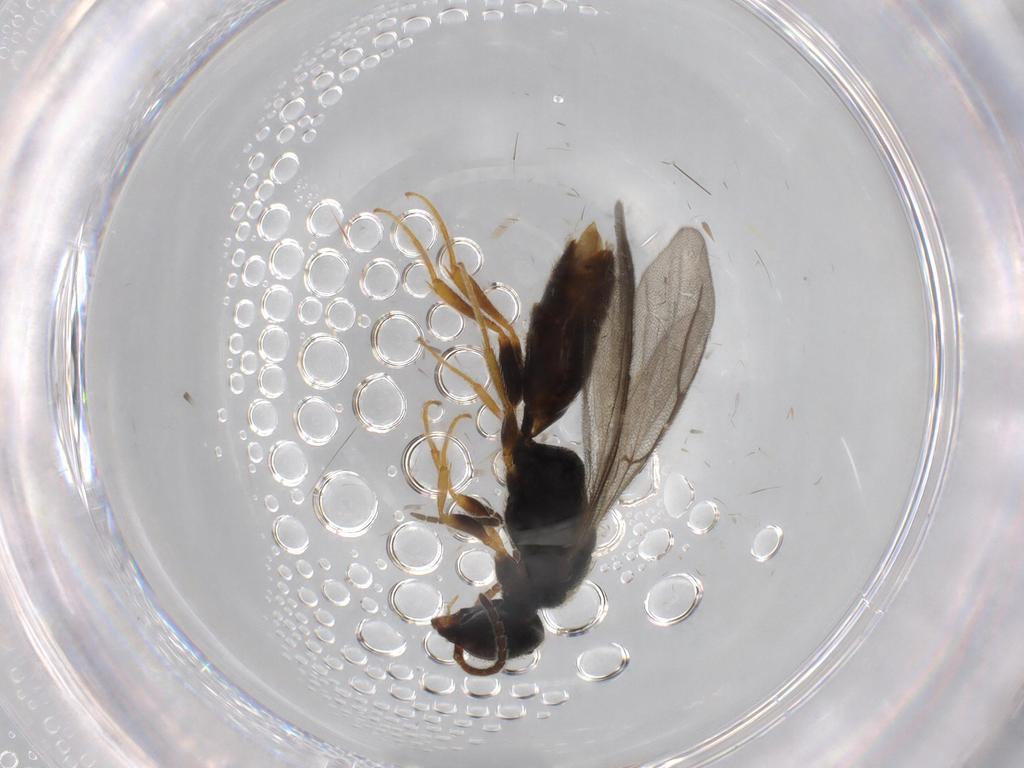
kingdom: Animalia
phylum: Arthropoda
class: Insecta
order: Hymenoptera
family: Bethylidae
